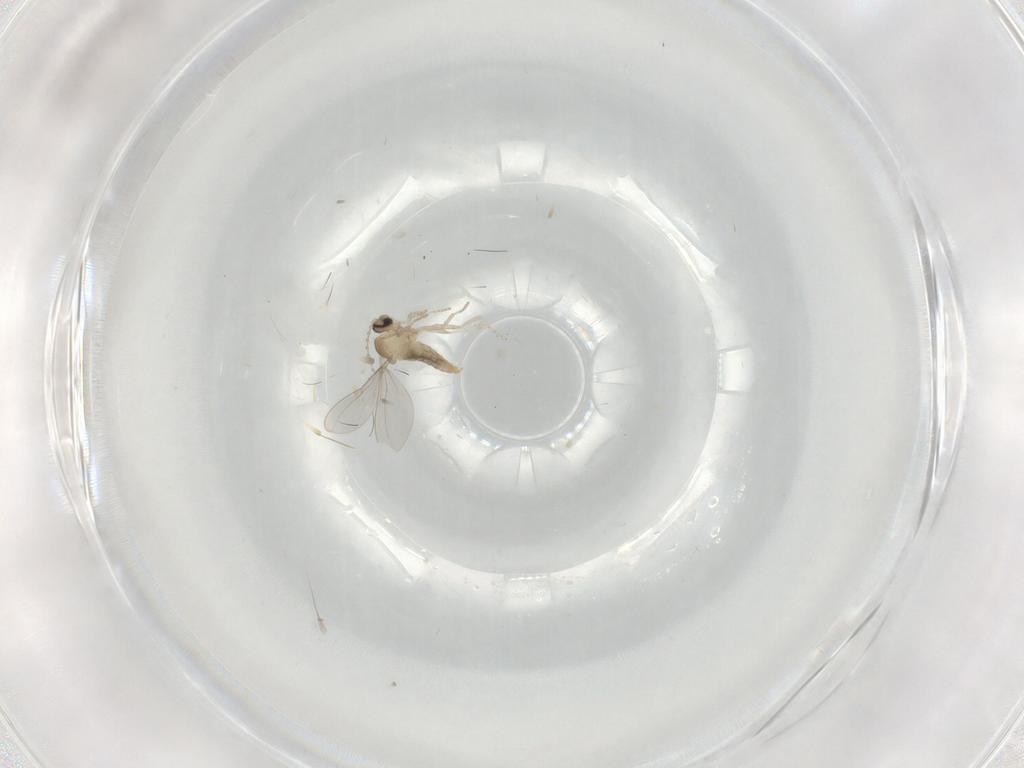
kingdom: Animalia
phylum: Arthropoda
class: Insecta
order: Diptera
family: Cecidomyiidae
